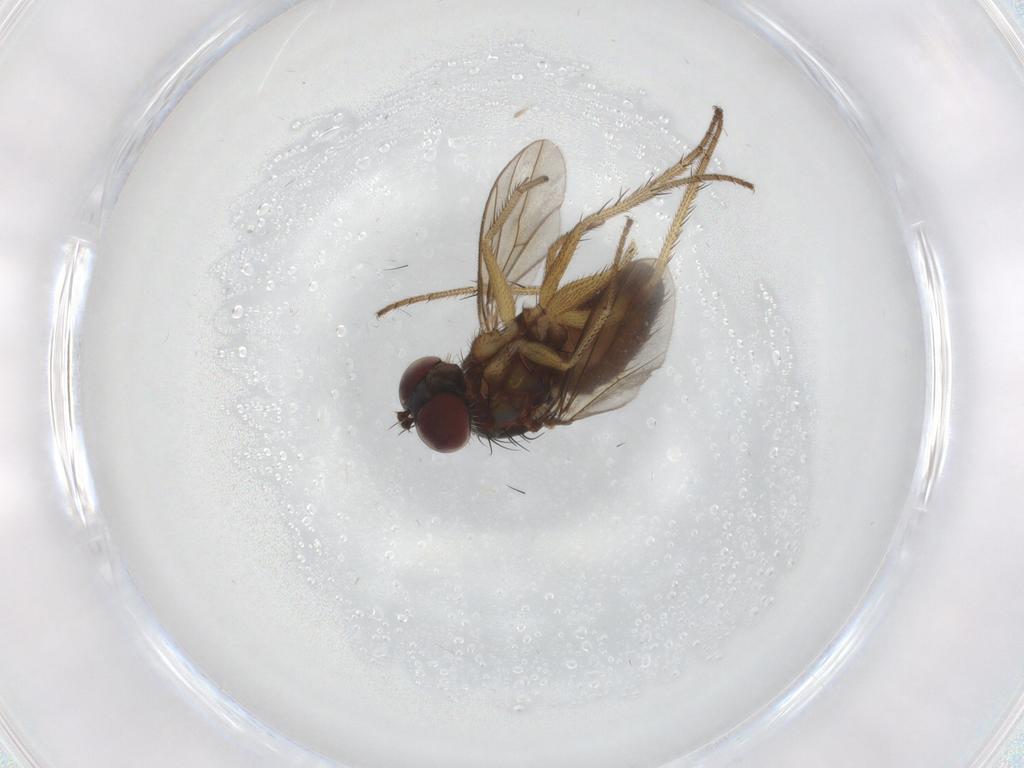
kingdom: Animalia
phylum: Arthropoda
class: Insecta
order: Diptera
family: Dolichopodidae
